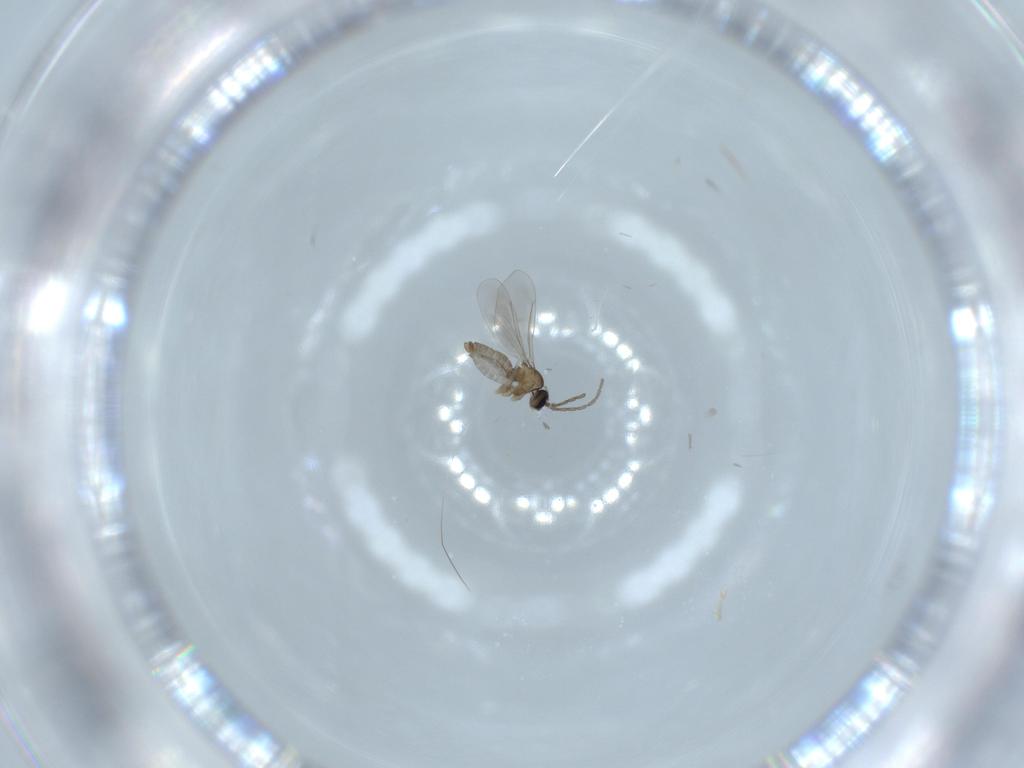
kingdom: Animalia
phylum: Arthropoda
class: Insecta
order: Diptera
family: Cecidomyiidae
